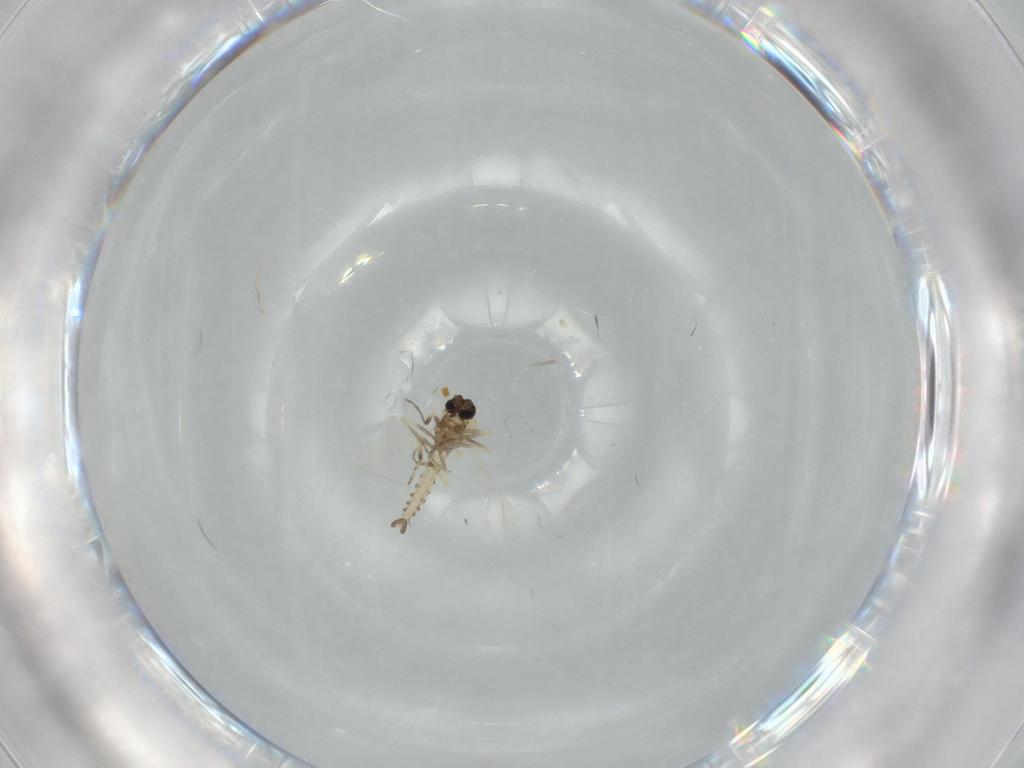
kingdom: Animalia
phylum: Arthropoda
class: Insecta
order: Diptera
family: Ceratopogonidae
